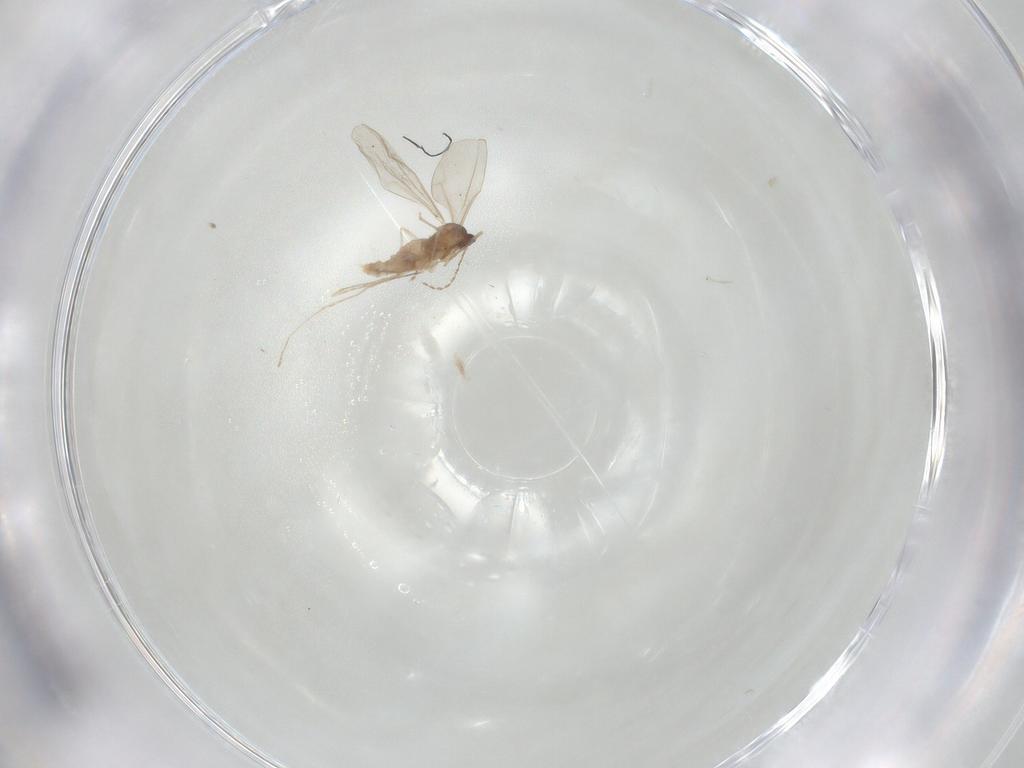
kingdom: Animalia
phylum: Arthropoda
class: Insecta
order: Diptera
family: Cecidomyiidae
